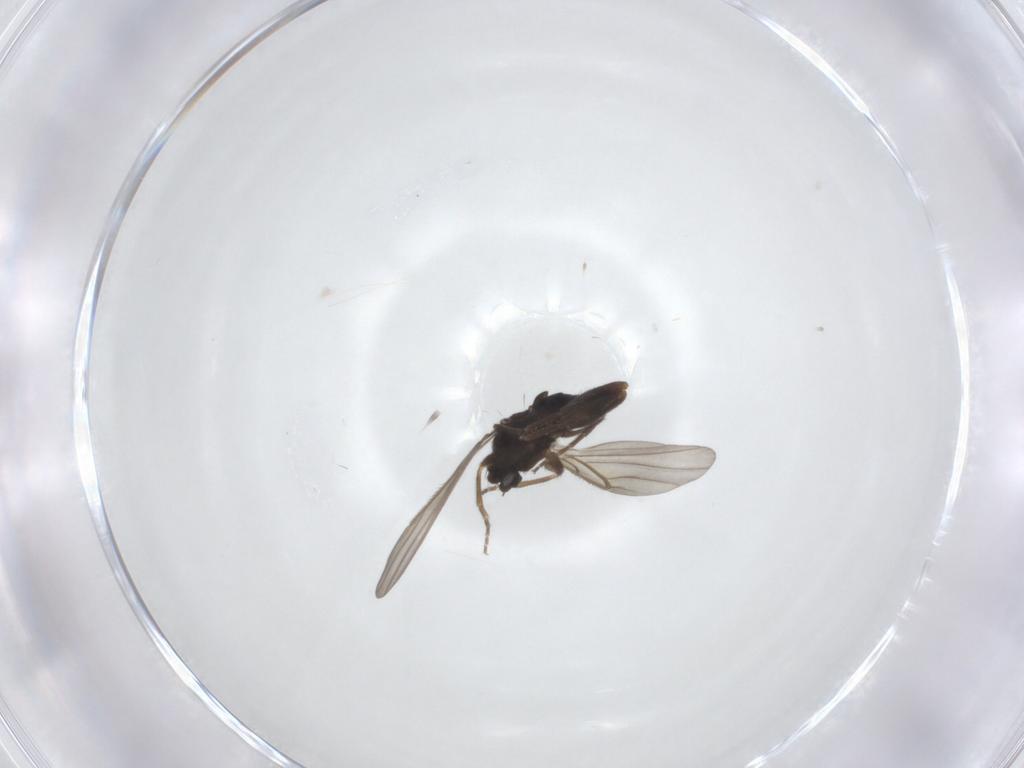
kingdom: Animalia
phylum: Arthropoda
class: Insecta
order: Diptera
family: Phoridae
